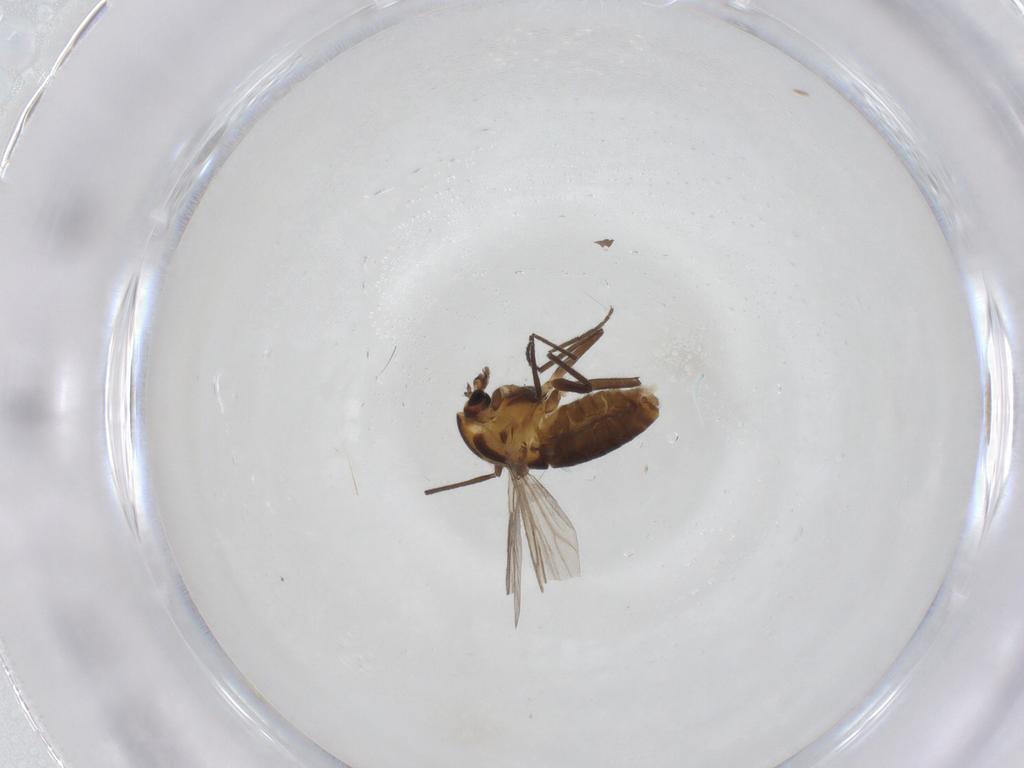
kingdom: Animalia
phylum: Arthropoda
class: Insecta
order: Diptera
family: Chironomidae
